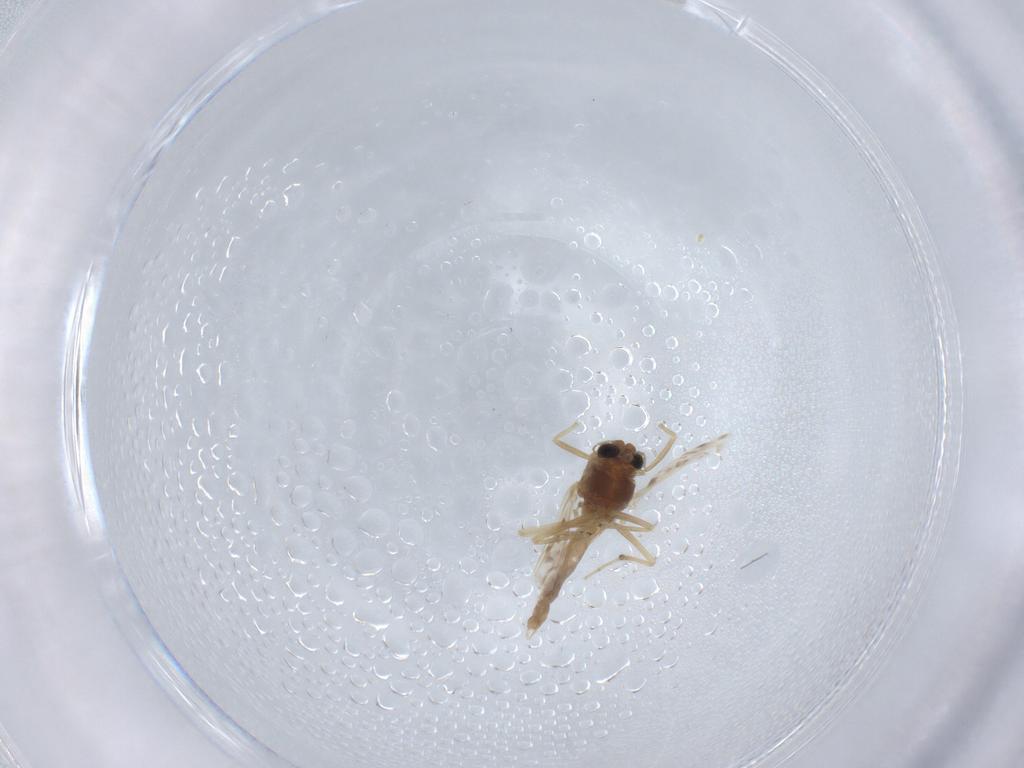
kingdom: Animalia
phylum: Arthropoda
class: Insecta
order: Diptera
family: Chironomidae
